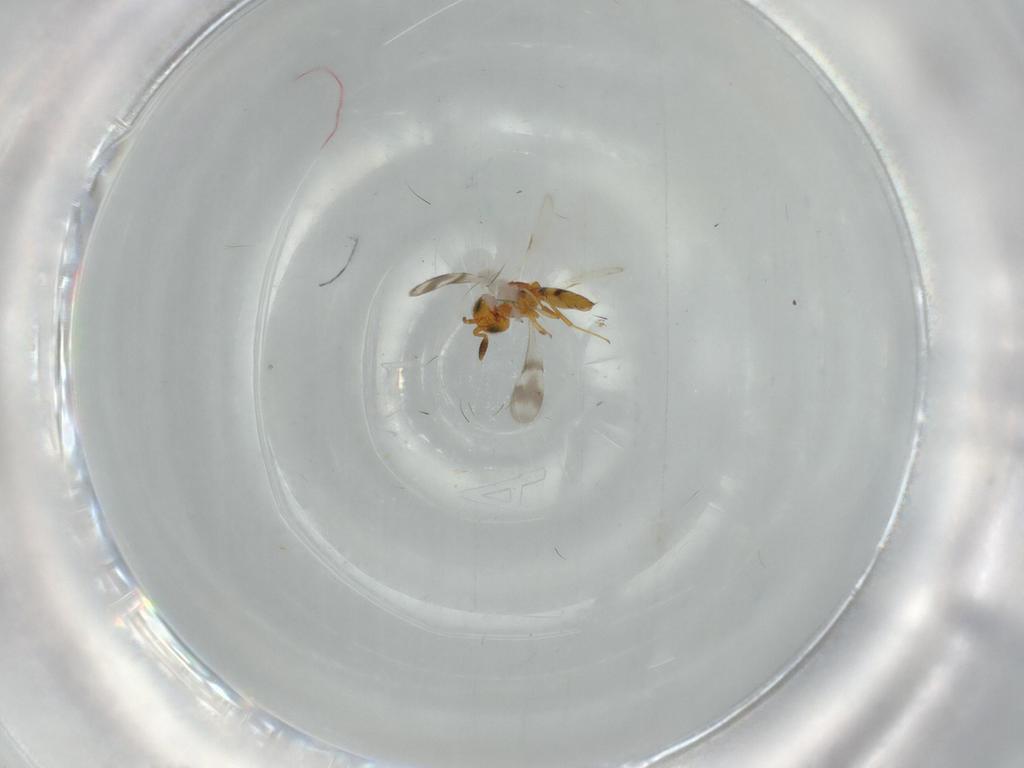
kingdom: Animalia
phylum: Arthropoda
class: Insecta
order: Hymenoptera
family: Scelionidae
